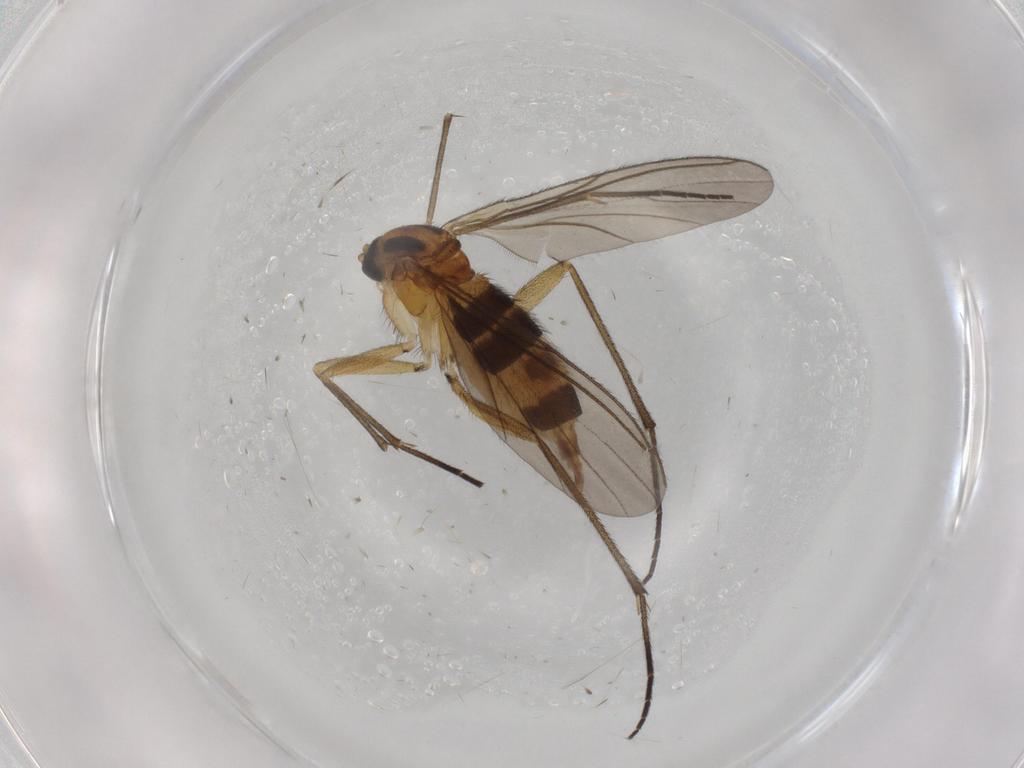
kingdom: Animalia
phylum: Arthropoda
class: Insecta
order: Diptera
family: Sciaridae
